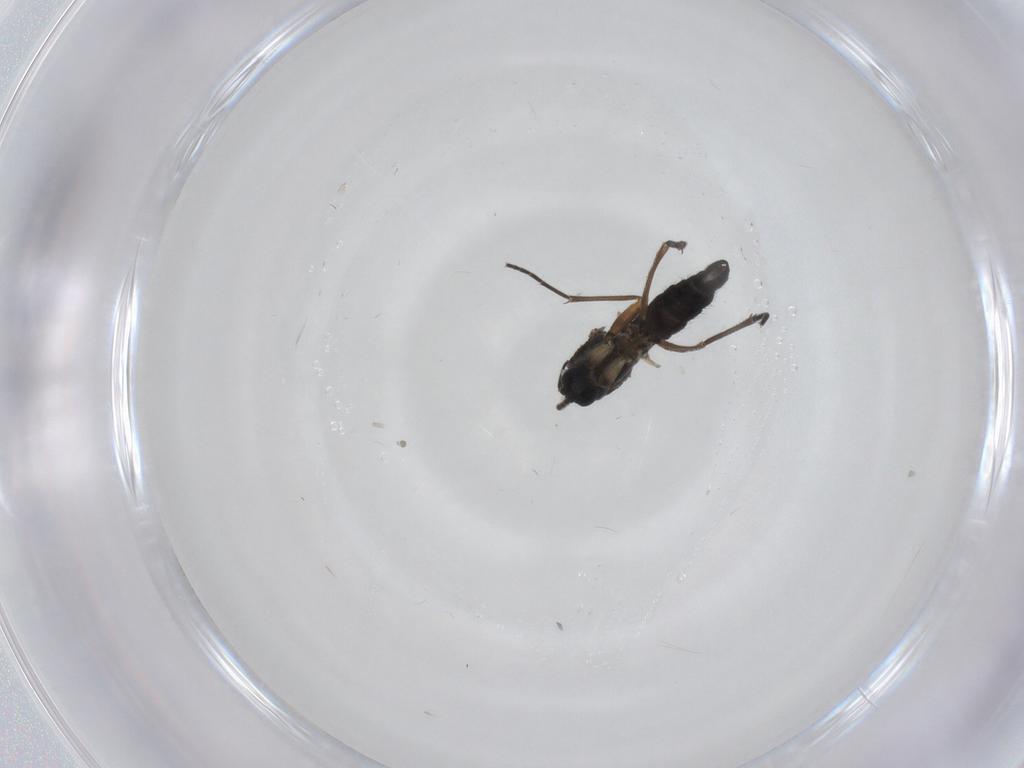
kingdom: Animalia
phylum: Arthropoda
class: Insecta
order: Diptera
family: Sciaridae
